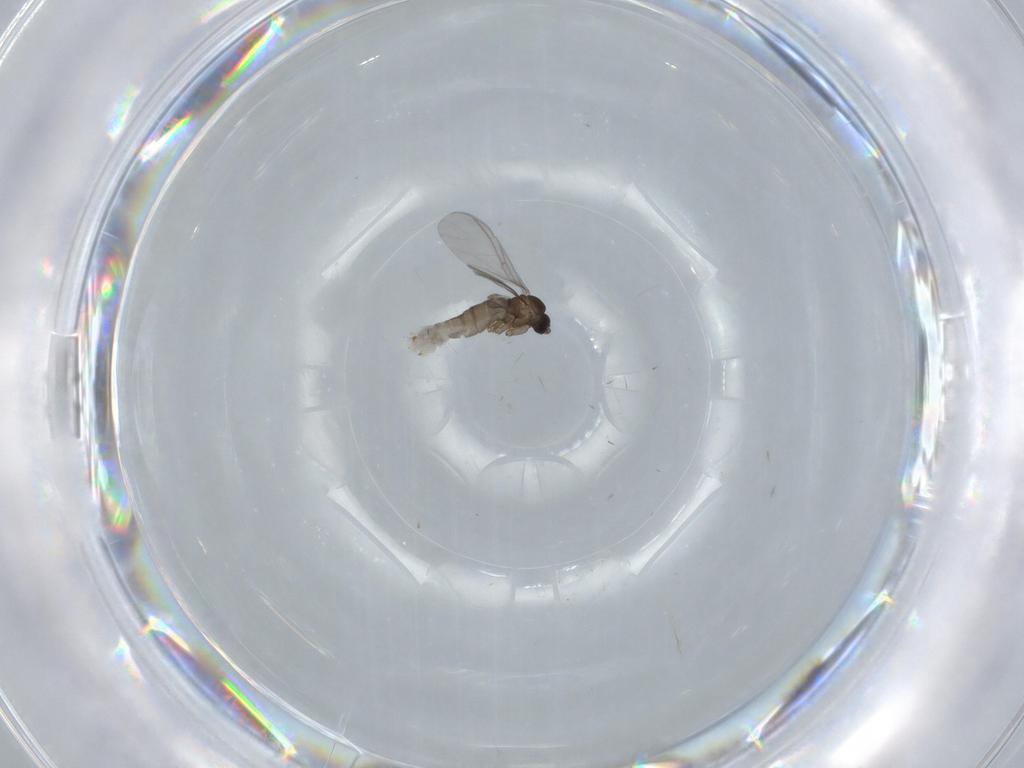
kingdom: Animalia
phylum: Arthropoda
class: Insecta
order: Diptera
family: Sciaridae
